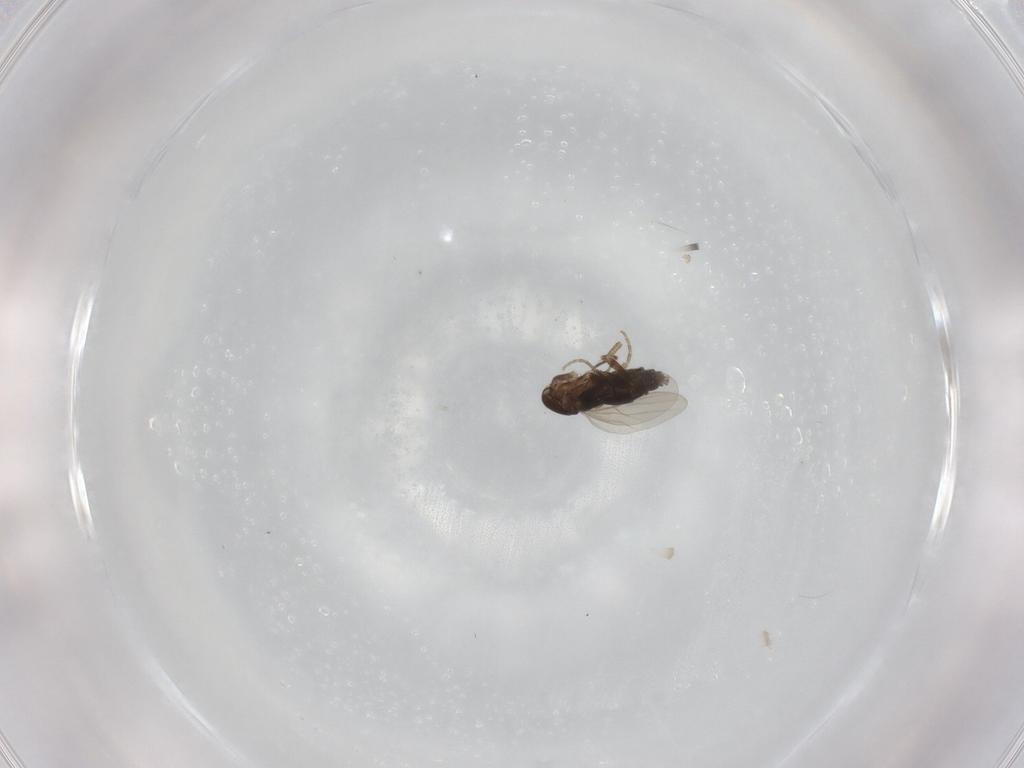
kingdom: Animalia
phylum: Arthropoda
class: Insecta
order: Diptera
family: Phoridae
